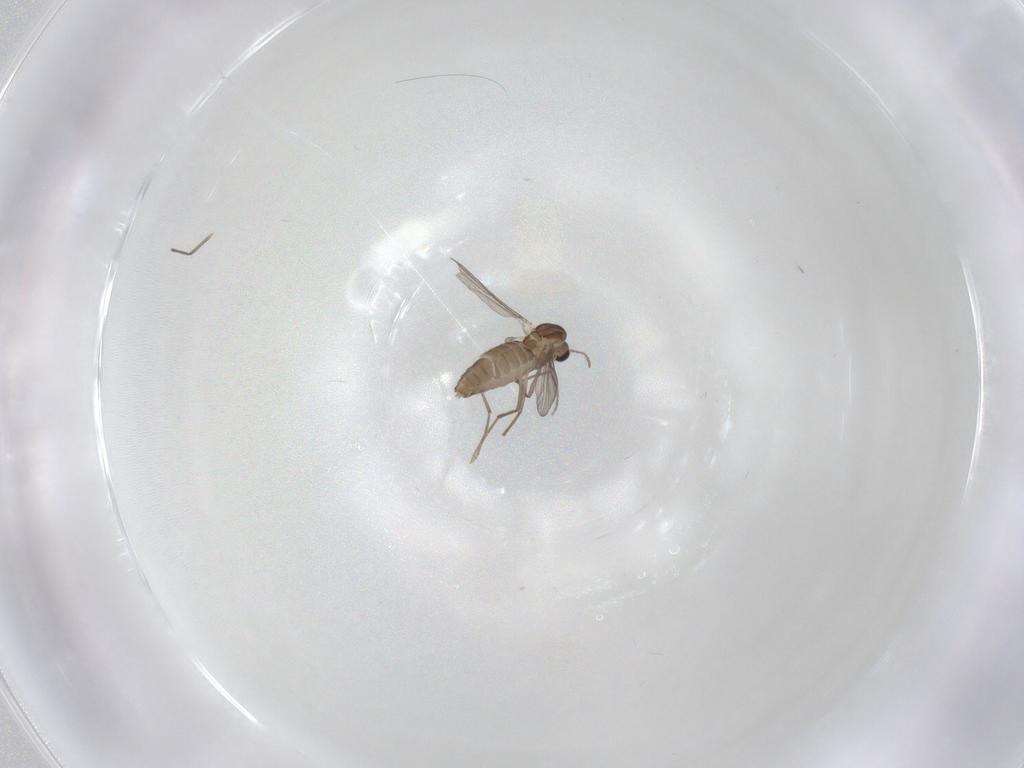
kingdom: Animalia
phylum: Arthropoda
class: Insecta
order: Diptera
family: Chironomidae
